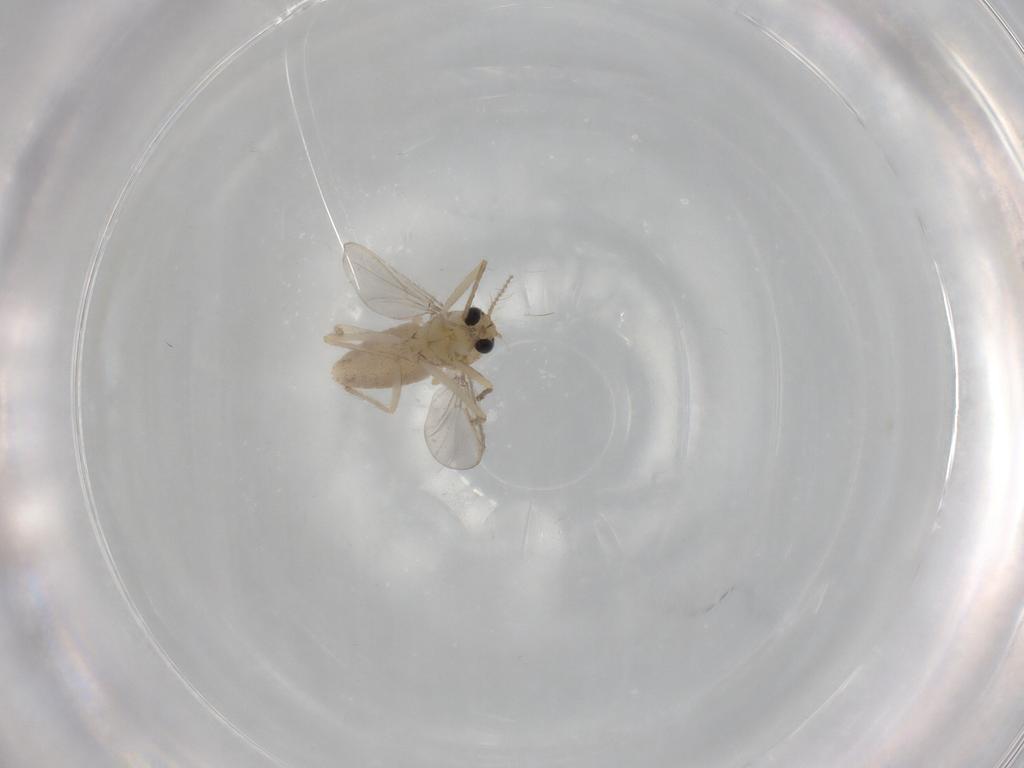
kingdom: Animalia
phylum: Arthropoda
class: Insecta
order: Diptera
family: Chironomidae
